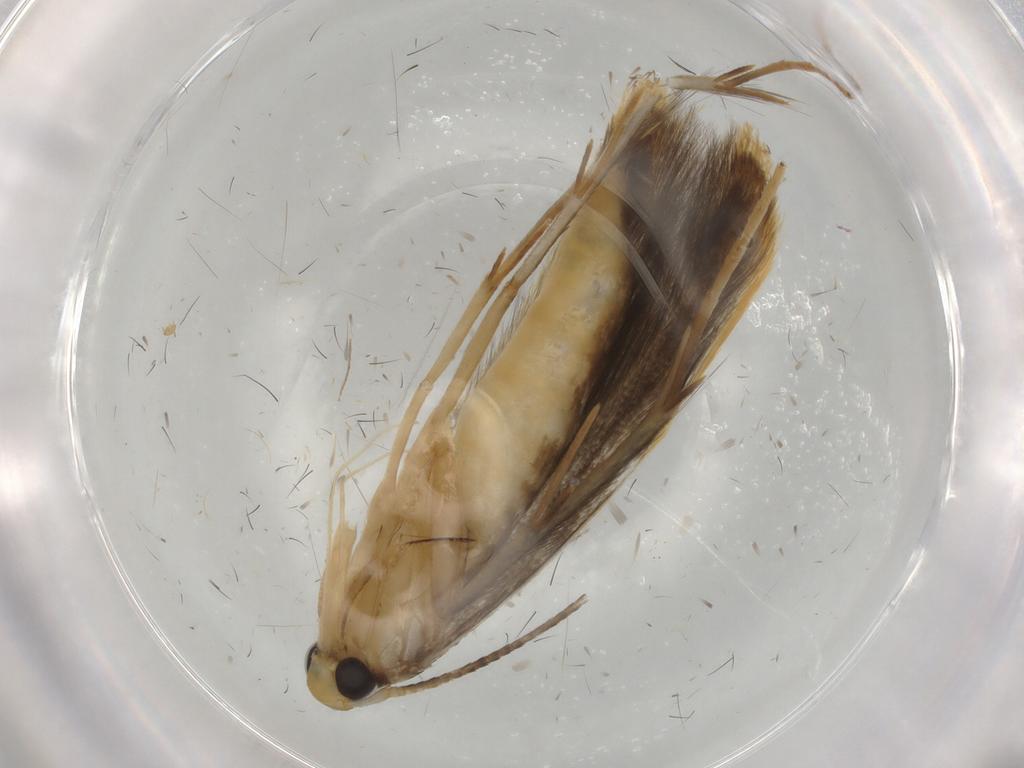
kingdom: Animalia
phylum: Arthropoda
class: Insecta
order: Lepidoptera
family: Pterolonchidae
